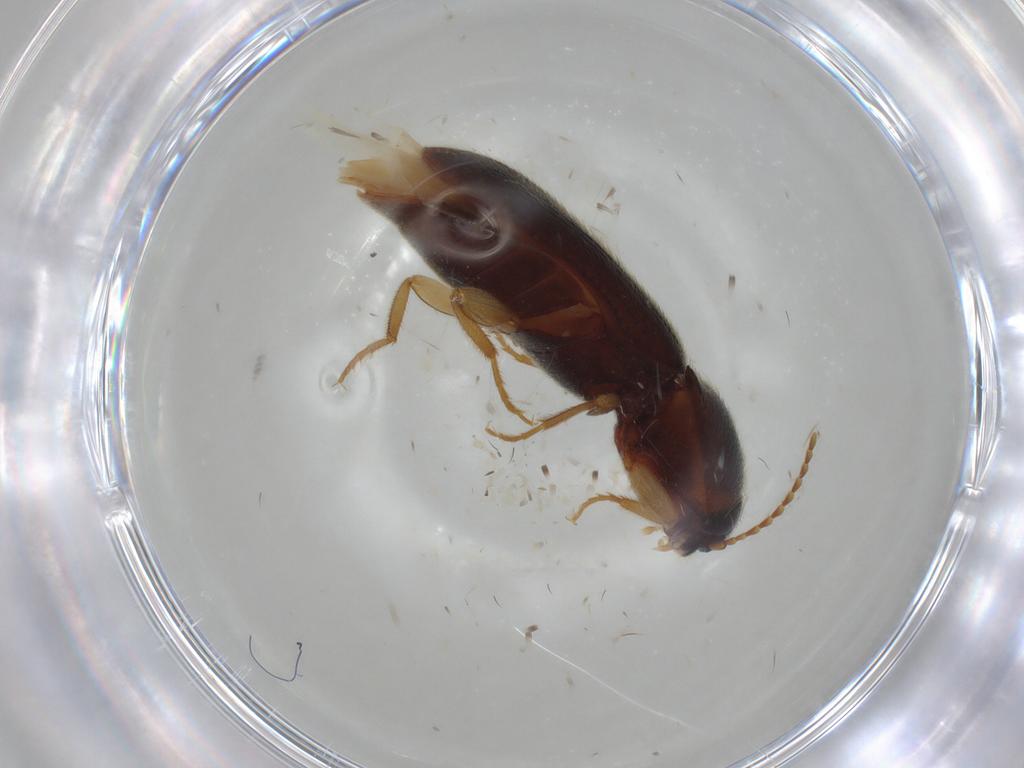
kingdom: Animalia
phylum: Arthropoda
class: Insecta
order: Coleoptera
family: Elateridae
